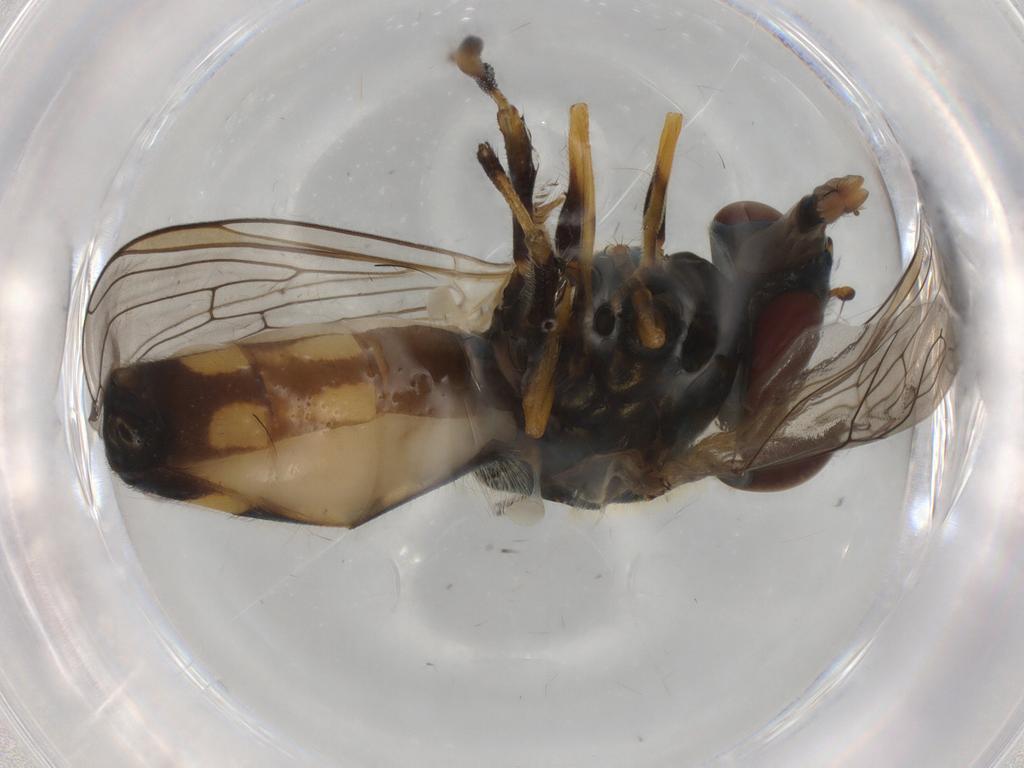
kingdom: Animalia
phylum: Arthropoda
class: Insecta
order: Diptera
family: Syrphidae
